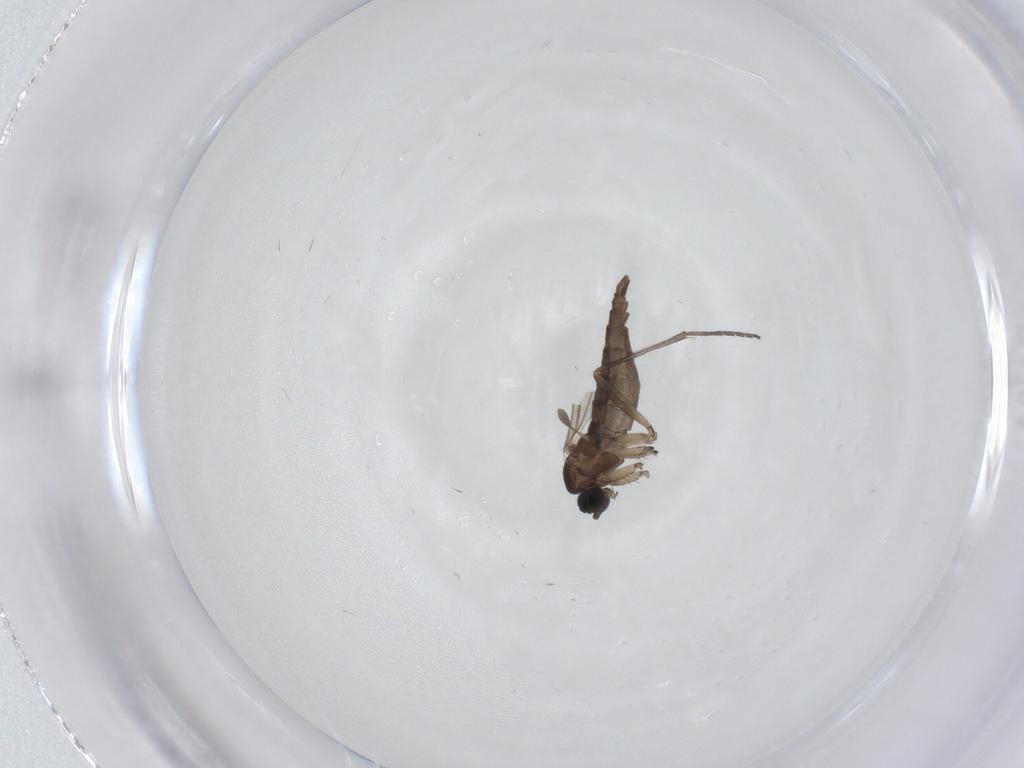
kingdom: Animalia
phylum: Arthropoda
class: Insecta
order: Diptera
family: Sciaridae
